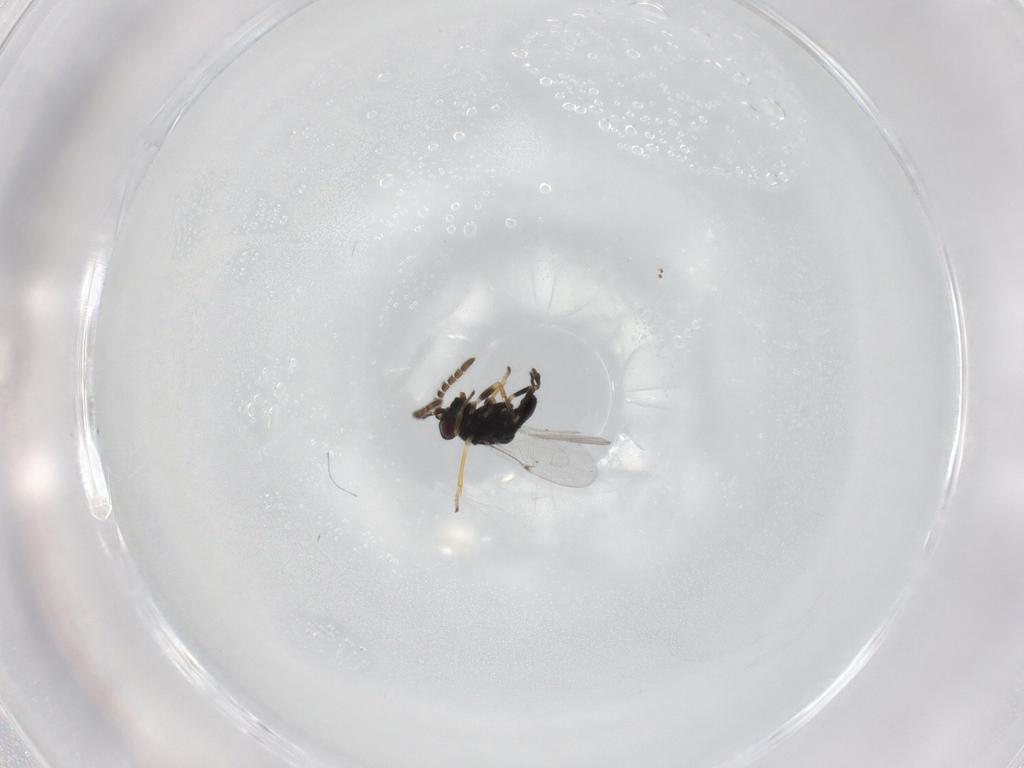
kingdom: Animalia
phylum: Arthropoda
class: Insecta
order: Hymenoptera
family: Encyrtidae
